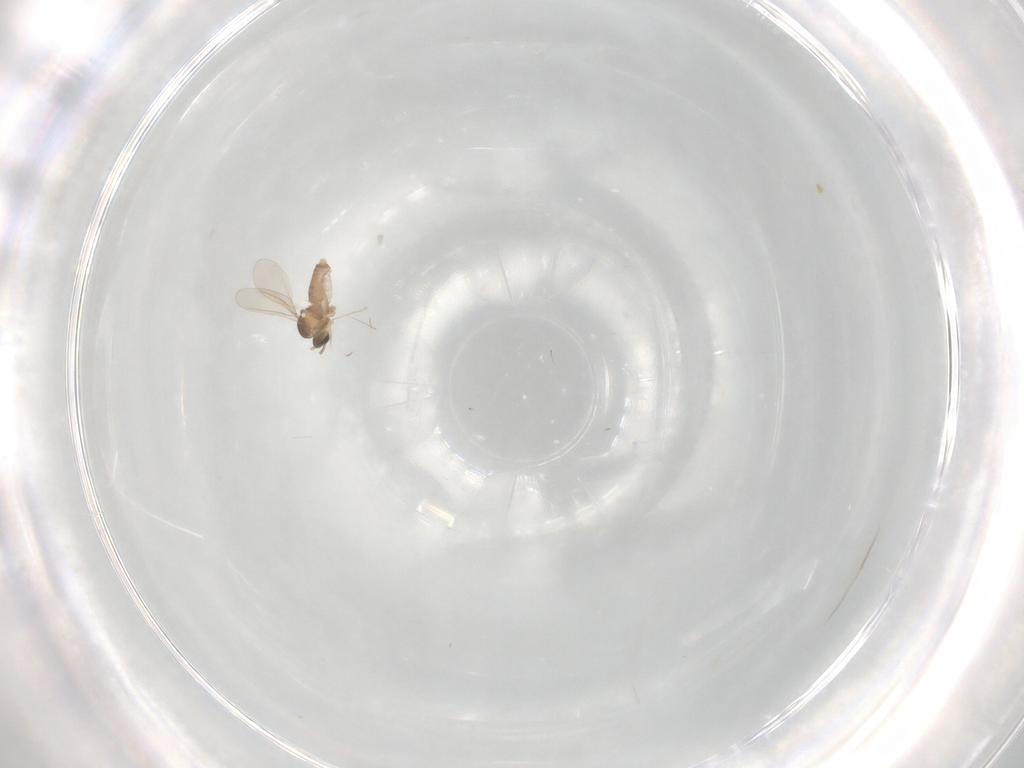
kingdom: Animalia
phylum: Arthropoda
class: Insecta
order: Diptera
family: Cecidomyiidae
